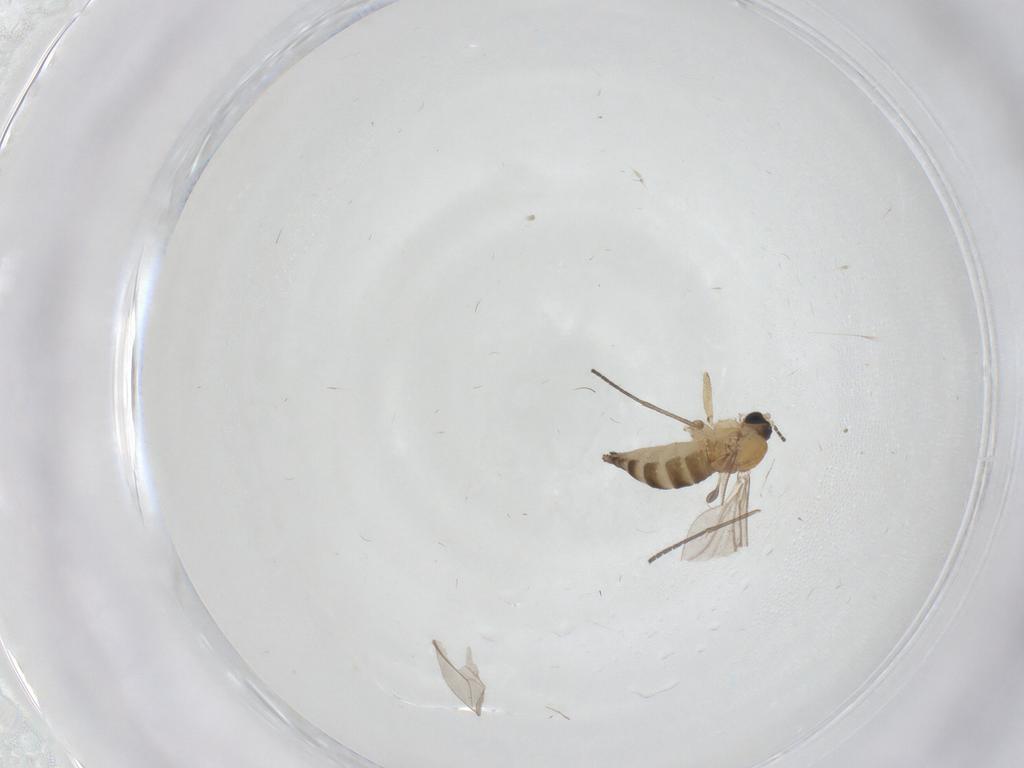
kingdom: Animalia
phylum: Arthropoda
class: Insecta
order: Diptera
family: Sciaridae
